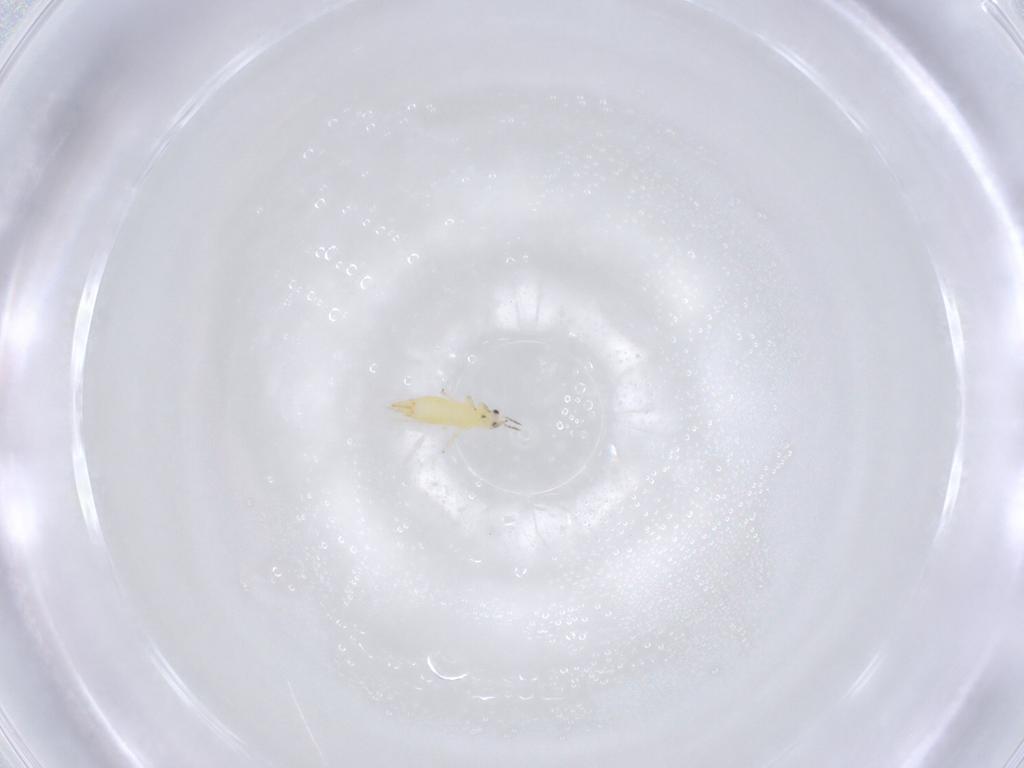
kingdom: Animalia
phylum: Arthropoda
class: Insecta
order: Thysanoptera
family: Thripidae
